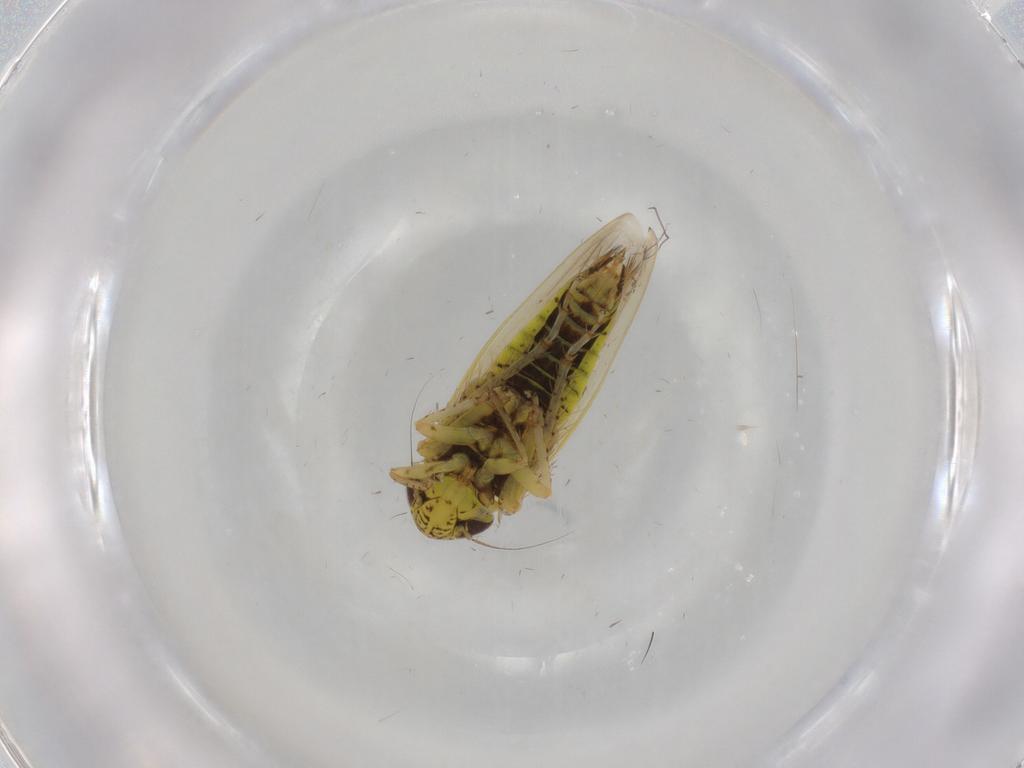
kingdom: Animalia
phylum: Arthropoda
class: Insecta
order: Hemiptera
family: Cicadellidae
